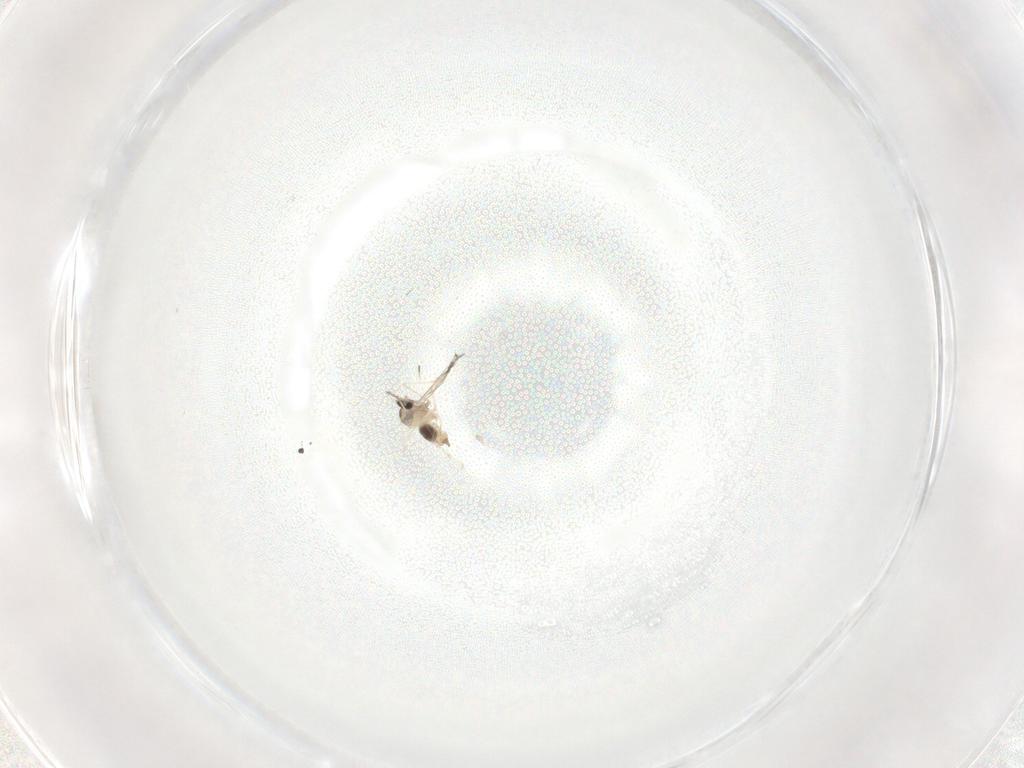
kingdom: Animalia
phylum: Arthropoda
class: Insecta
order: Diptera
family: Cecidomyiidae
